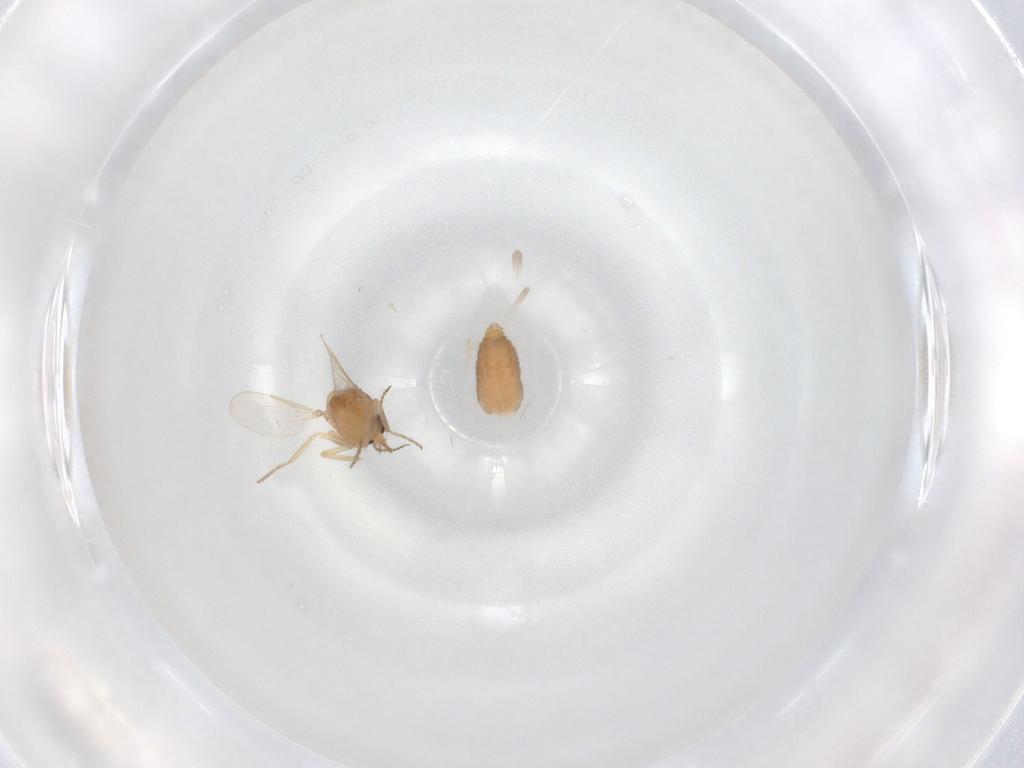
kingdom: Animalia
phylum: Arthropoda
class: Insecta
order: Diptera
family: Ceratopogonidae
